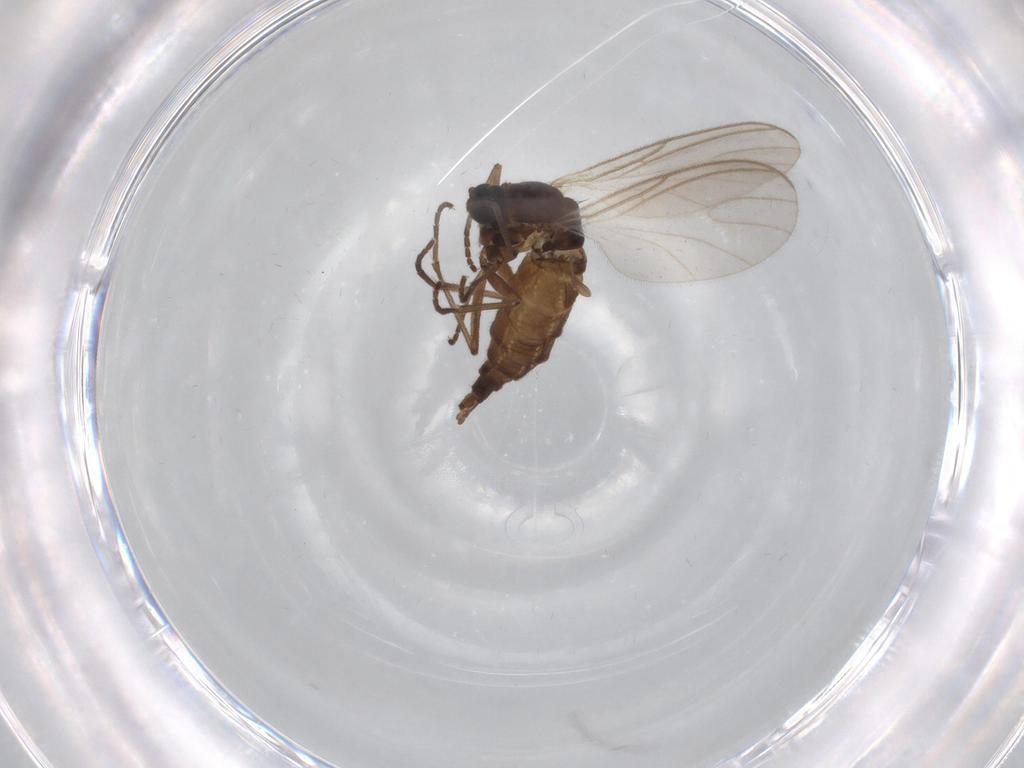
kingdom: Animalia
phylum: Arthropoda
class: Insecta
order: Diptera
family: Sciaridae
